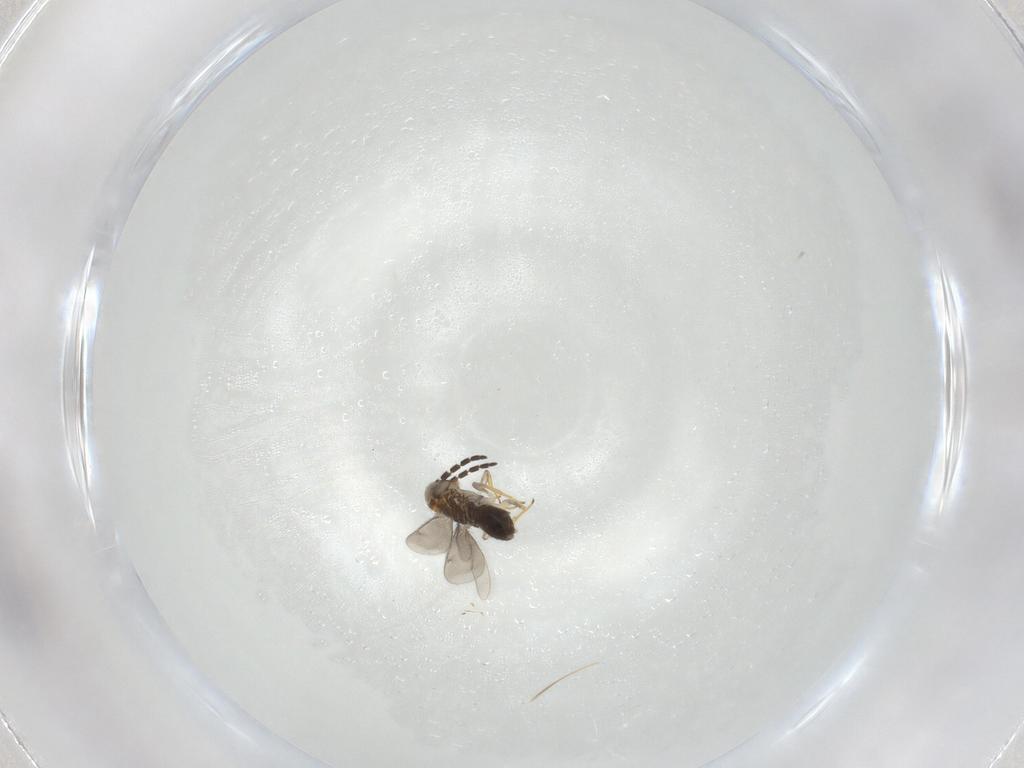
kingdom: Animalia
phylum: Arthropoda
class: Insecta
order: Hymenoptera
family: Aphelinidae
